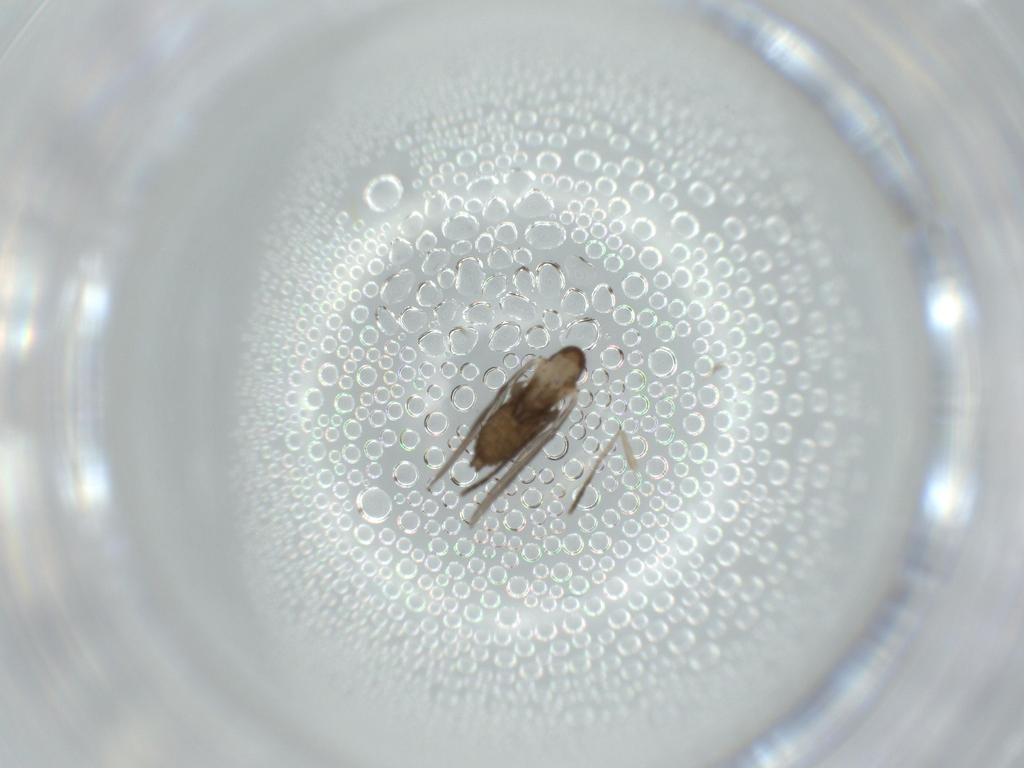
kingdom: Animalia
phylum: Arthropoda
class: Insecta
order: Diptera
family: Psychodidae
